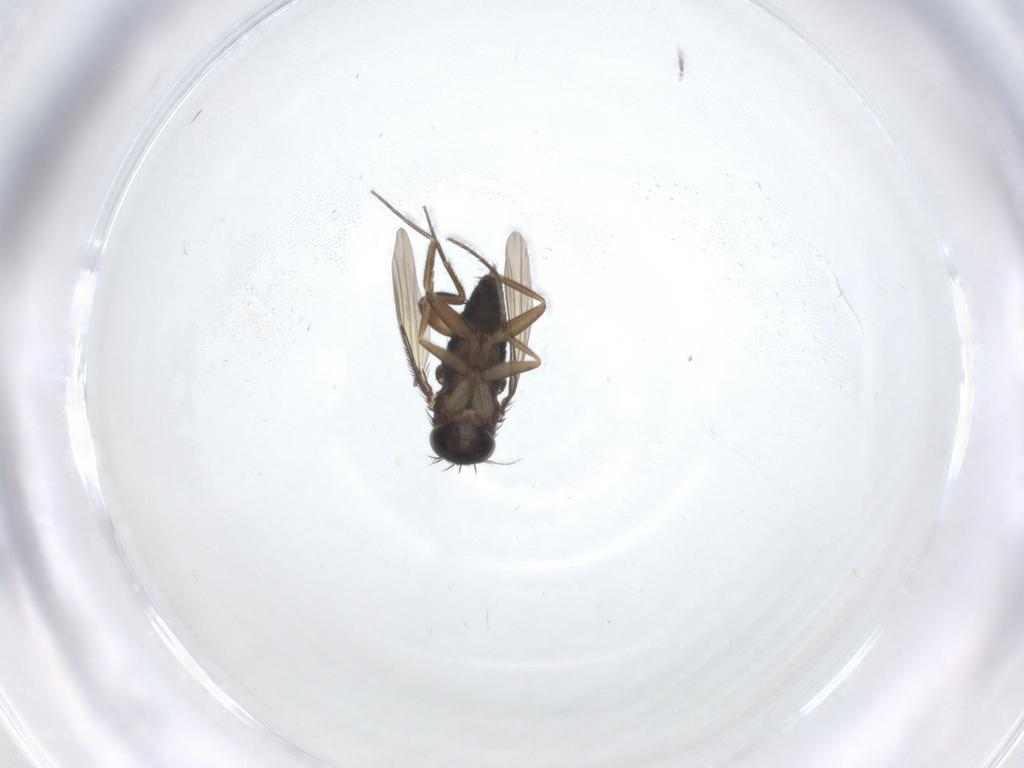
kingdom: Animalia
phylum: Arthropoda
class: Insecta
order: Diptera
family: Phoridae
